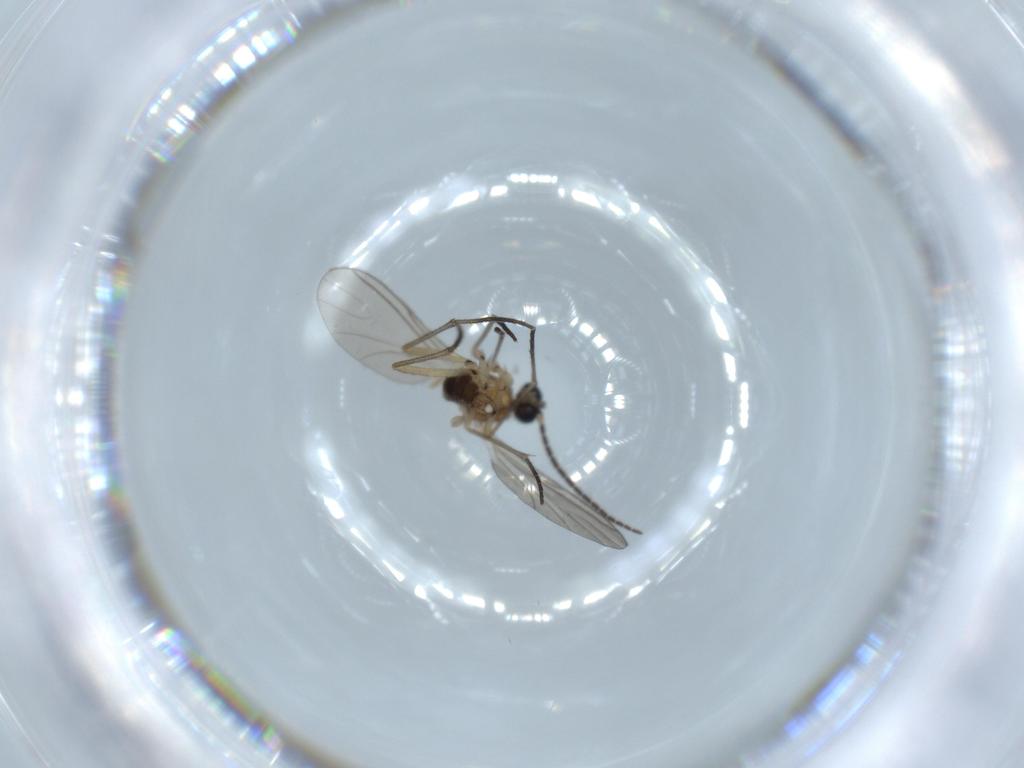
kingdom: Animalia
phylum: Arthropoda
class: Insecta
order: Diptera
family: Sciaridae
